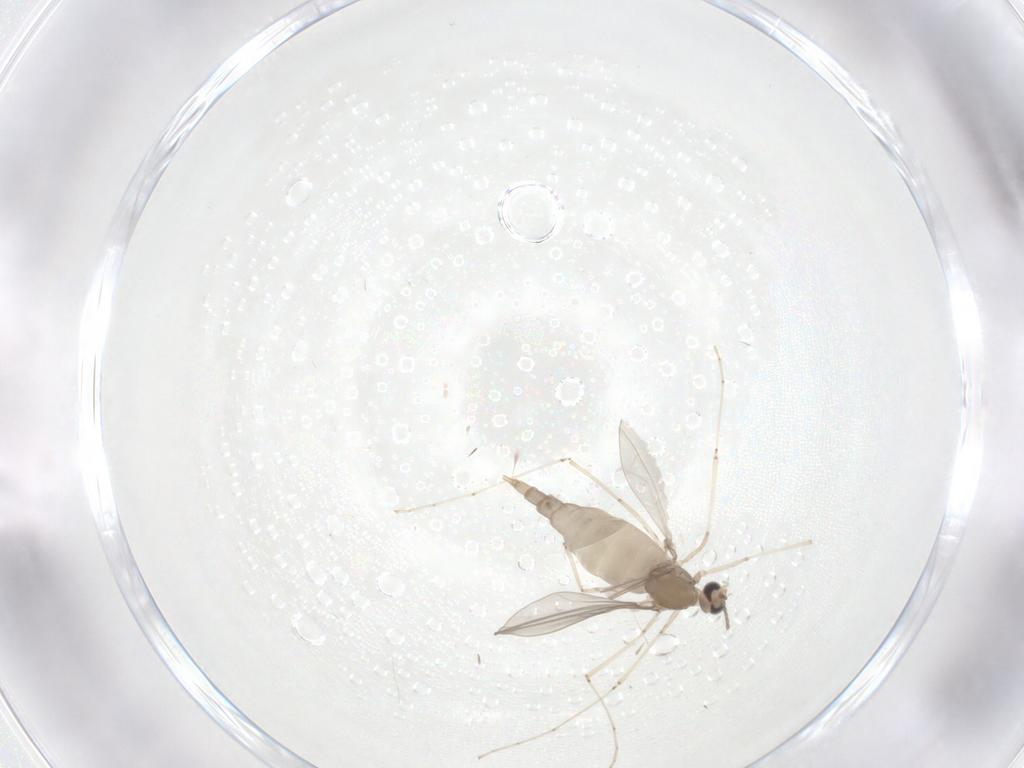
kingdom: Animalia
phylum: Arthropoda
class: Insecta
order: Diptera
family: Cecidomyiidae
